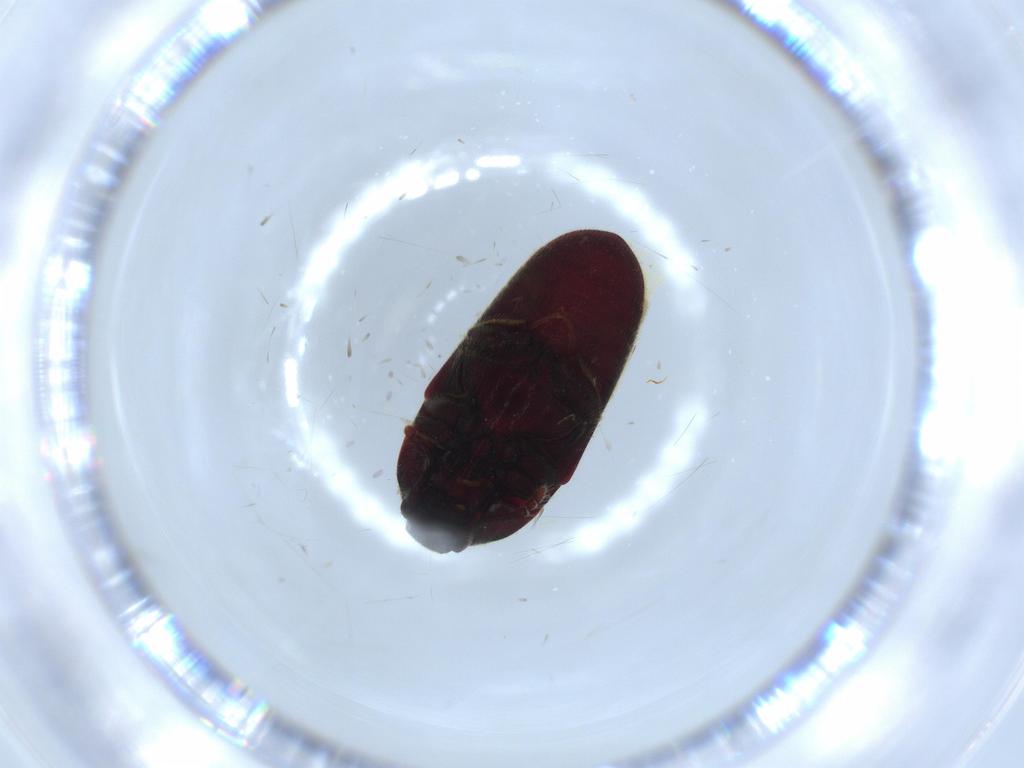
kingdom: Animalia
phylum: Arthropoda
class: Insecta
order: Coleoptera
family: Throscidae
